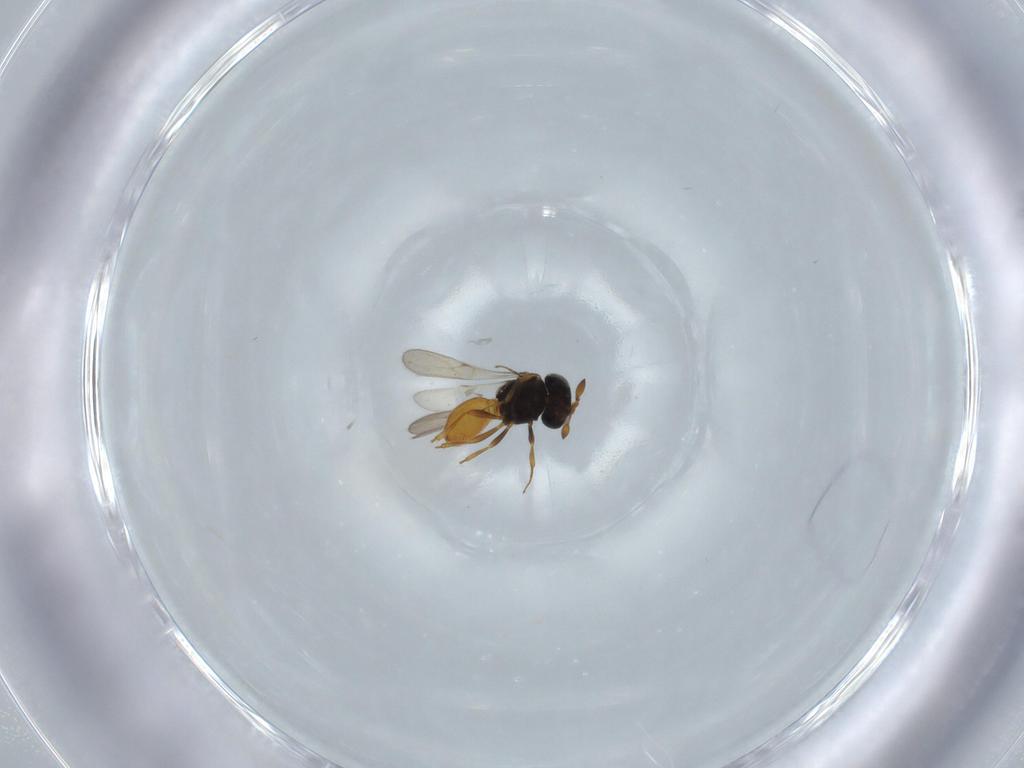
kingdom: Animalia
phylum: Arthropoda
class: Insecta
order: Hymenoptera
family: Scelionidae
